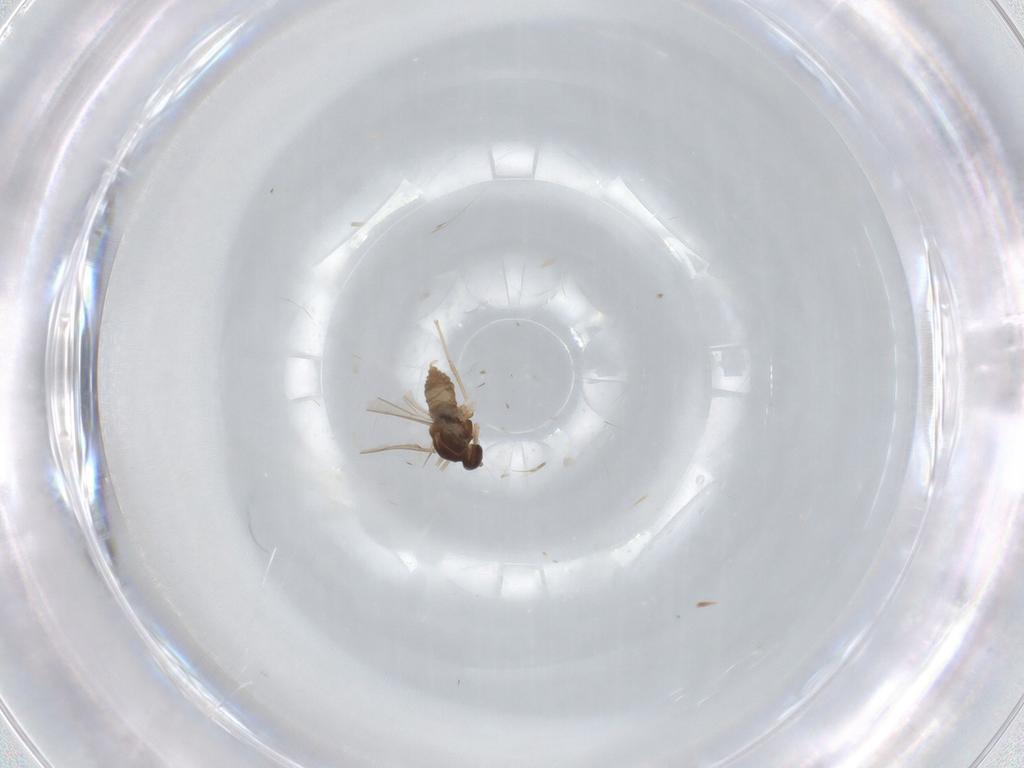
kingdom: Animalia
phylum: Arthropoda
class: Insecta
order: Diptera
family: Cecidomyiidae
